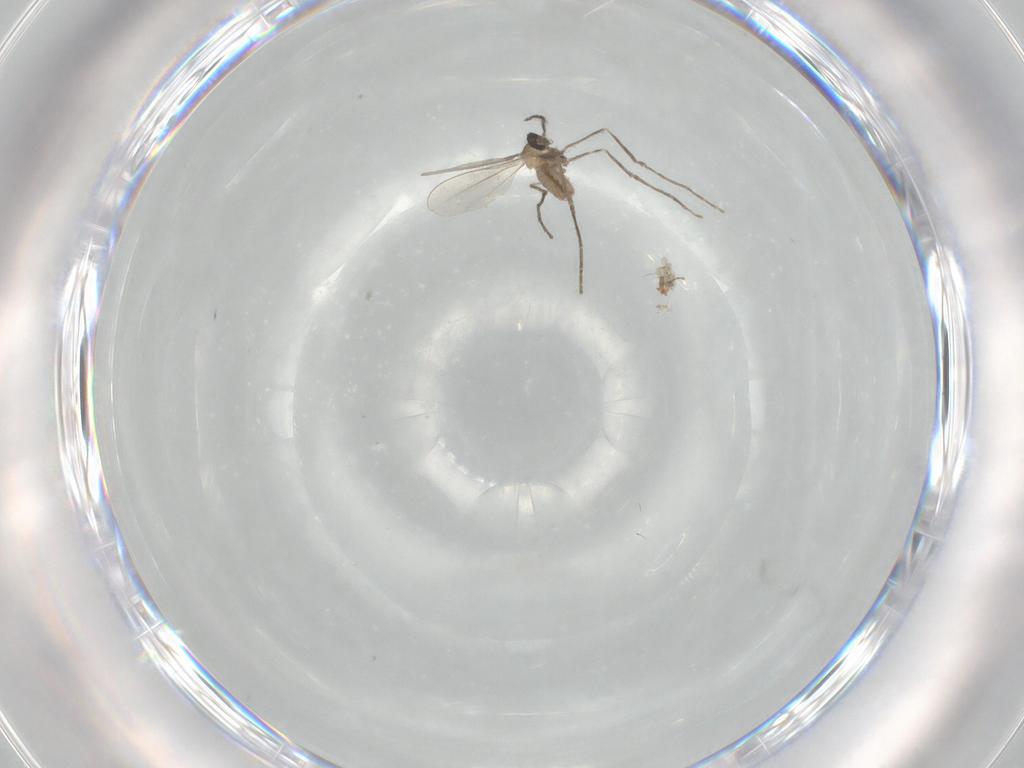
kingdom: Animalia
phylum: Arthropoda
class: Insecta
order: Diptera
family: Cecidomyiidae
